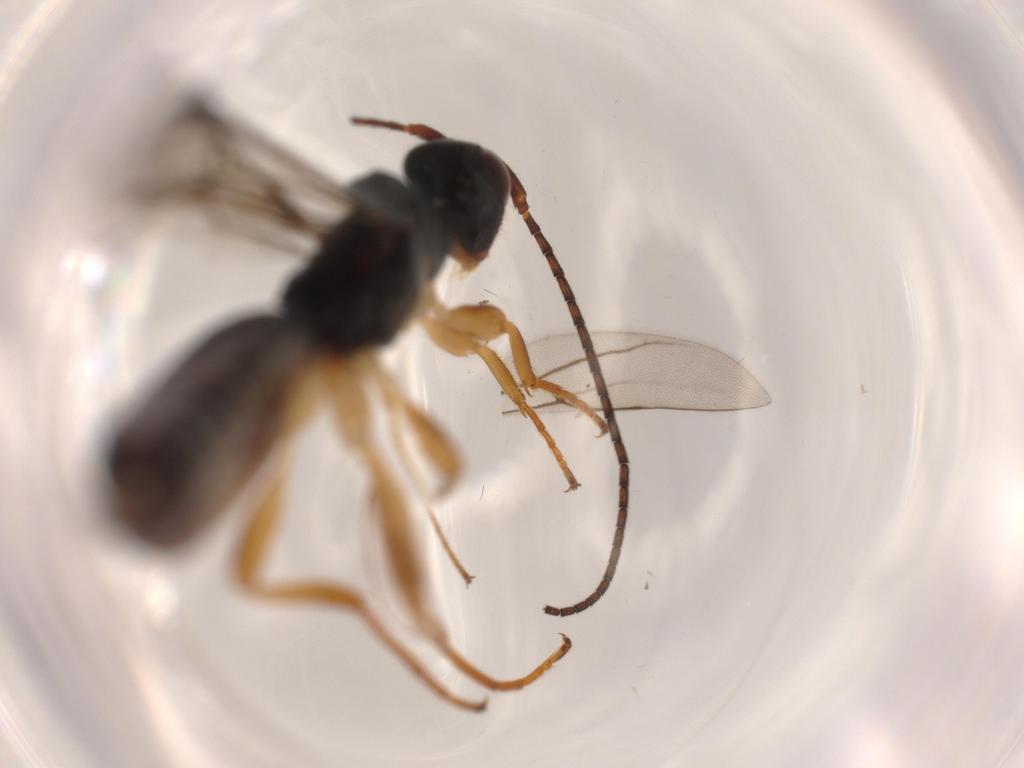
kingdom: Animalia
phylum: Arthropoda
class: Insecta
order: Hymenoptera
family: Braconidae
